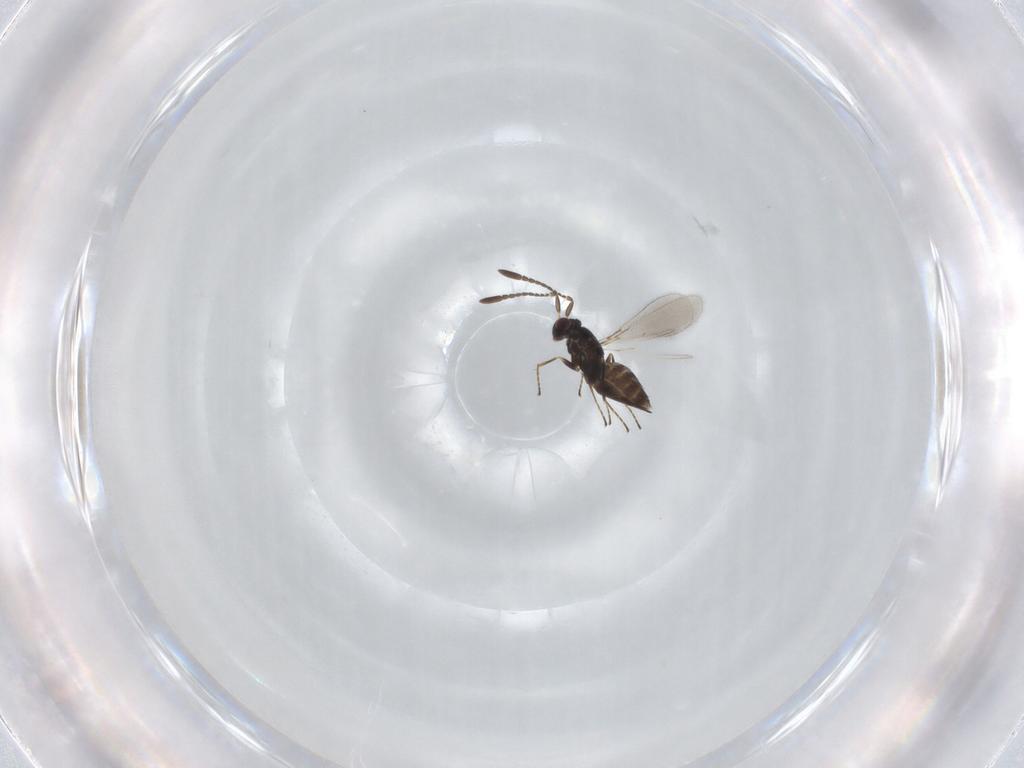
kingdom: Animalia
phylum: Arthropoda
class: Insecta
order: Hymenoptera
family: Mymaridae
